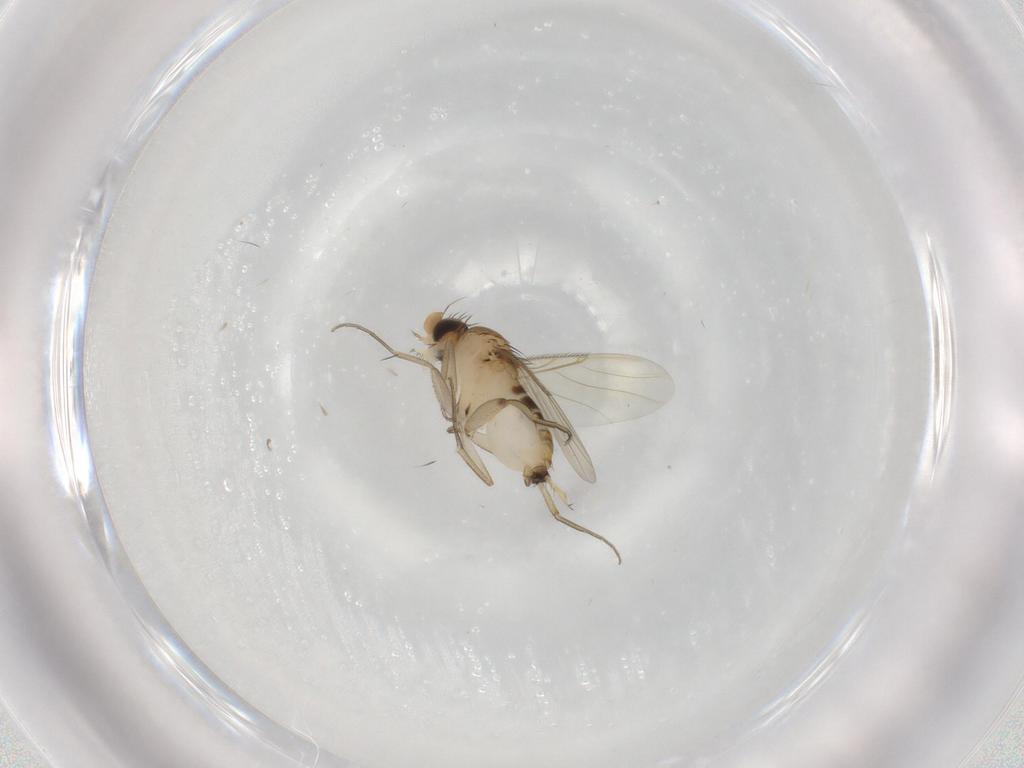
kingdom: Animalia
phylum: Arthropoda
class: Insecta
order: Diptera
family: Phoridae
